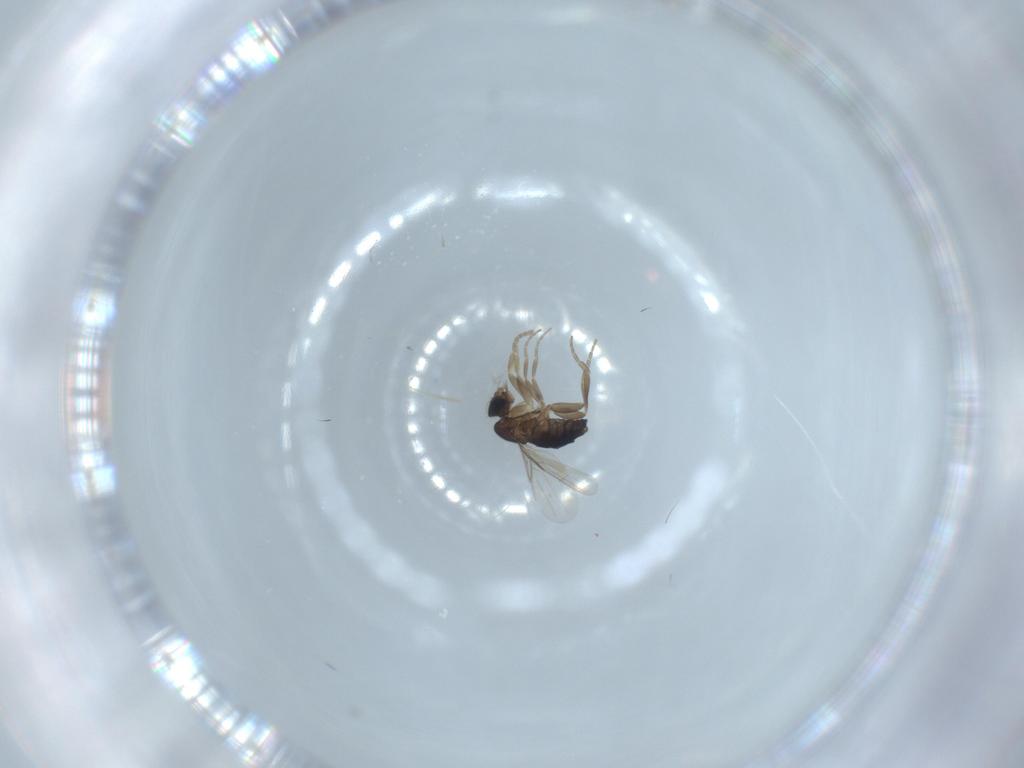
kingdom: Animalia
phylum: Arthropoda
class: Insecta
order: Diptera
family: Phoridae
